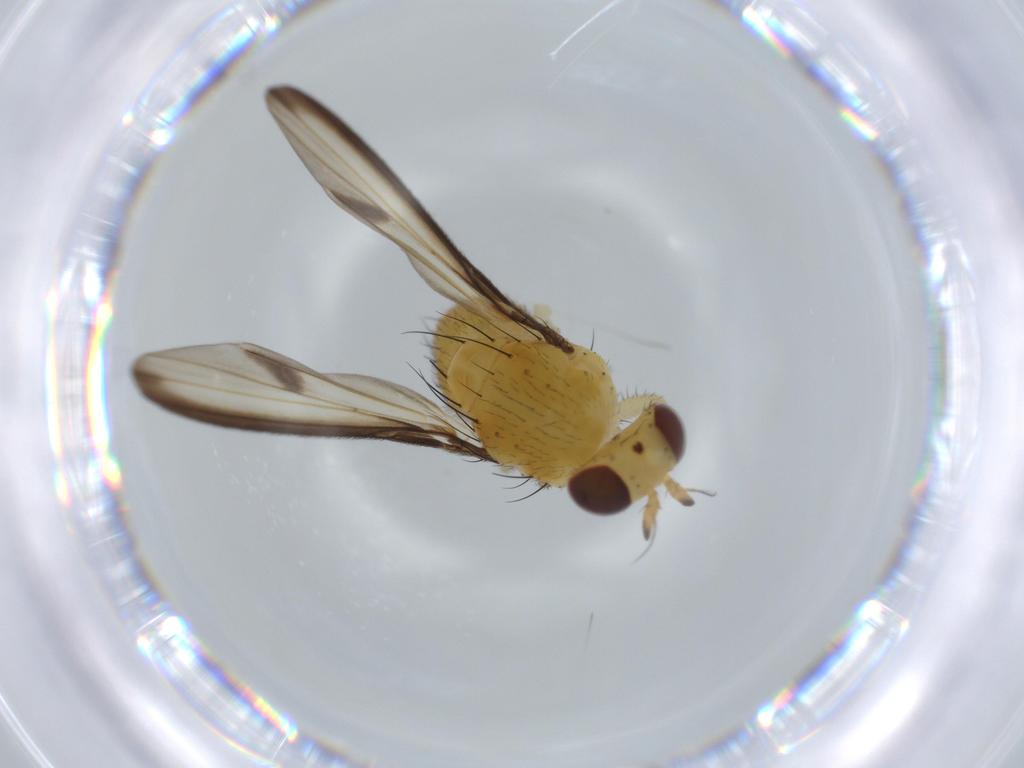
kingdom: Animalia
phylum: Arthropoda
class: Insecta
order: Diptera
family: Lauxaniidae
